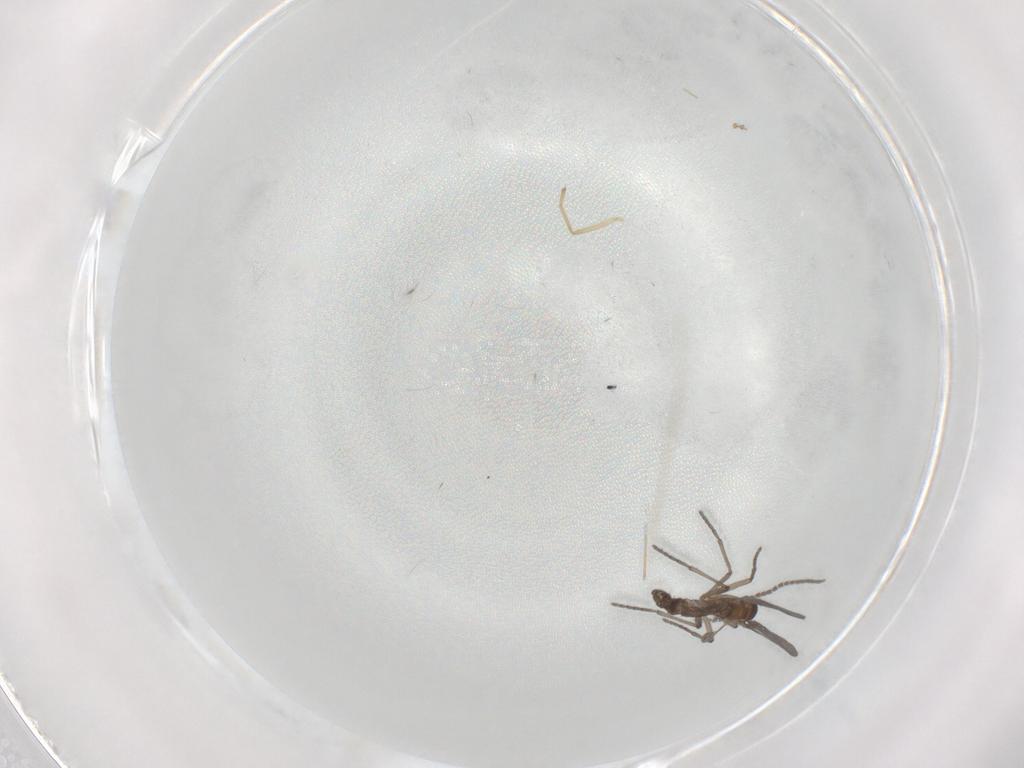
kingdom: Animalia
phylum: Arthropoda
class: Insecta
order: Diptera
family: Sciaridae
